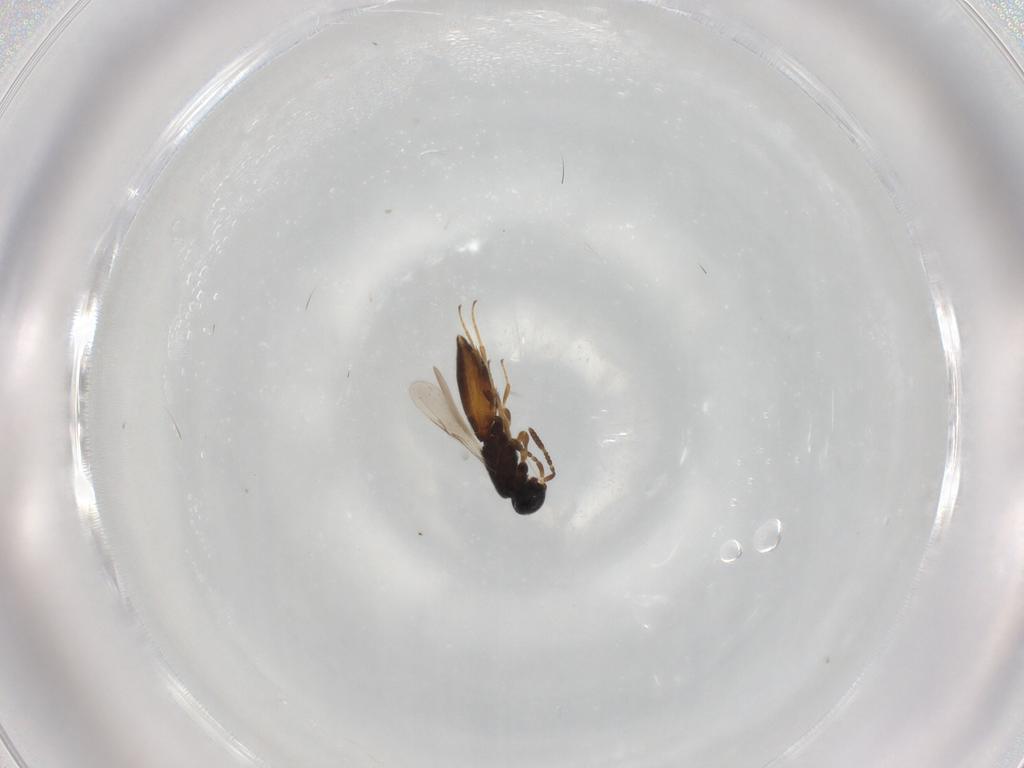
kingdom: Animalia
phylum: Arthropoda
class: Insecta
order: Hymenoptera
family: Scelionidae
